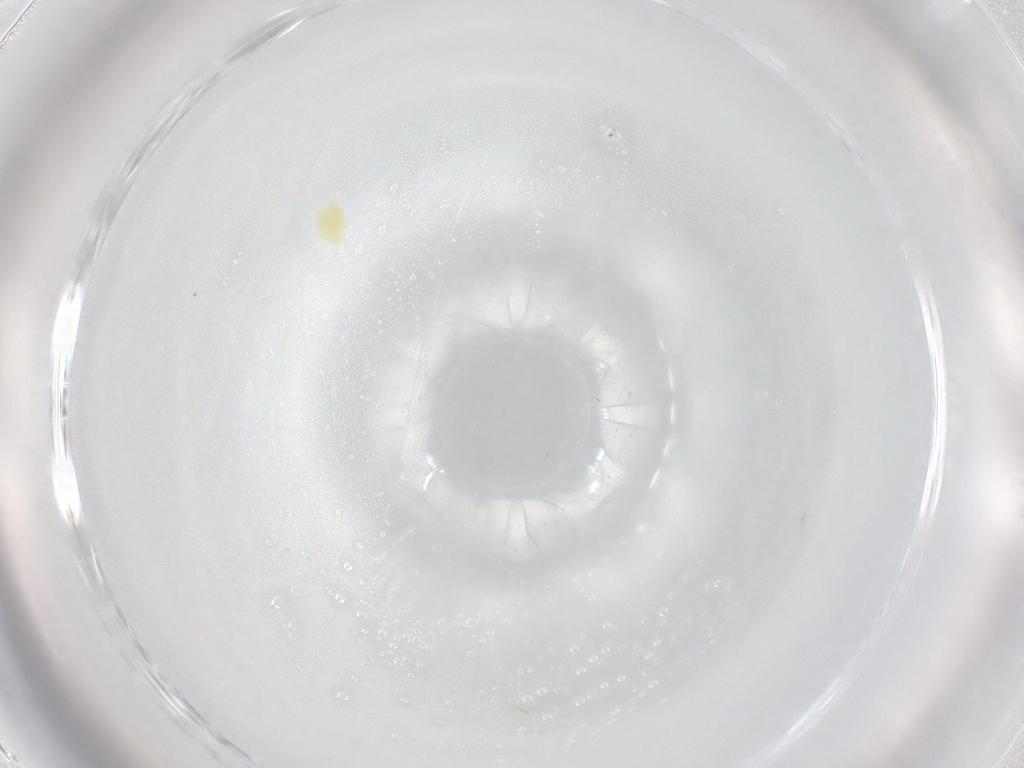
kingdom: Animalia
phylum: Arthropoda
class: Arachnida
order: Trombidiformes
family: Eupodidae
